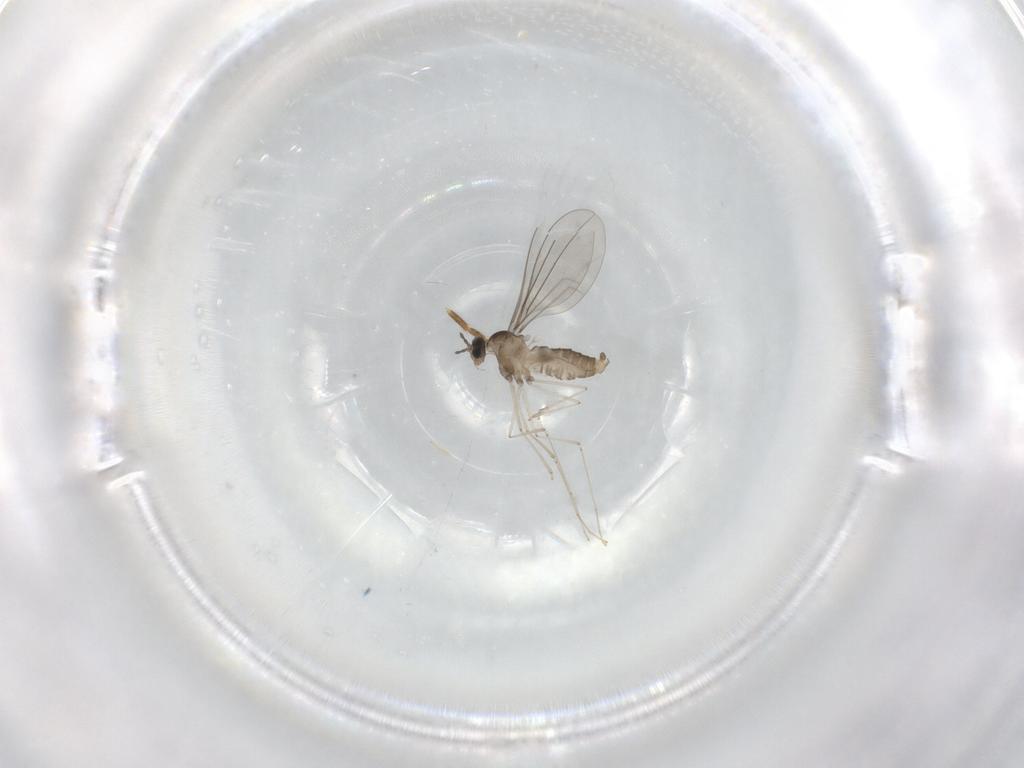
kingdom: Animalia
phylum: Arthropoda
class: Insecta
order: Diptera
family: Cecidomyiidae
